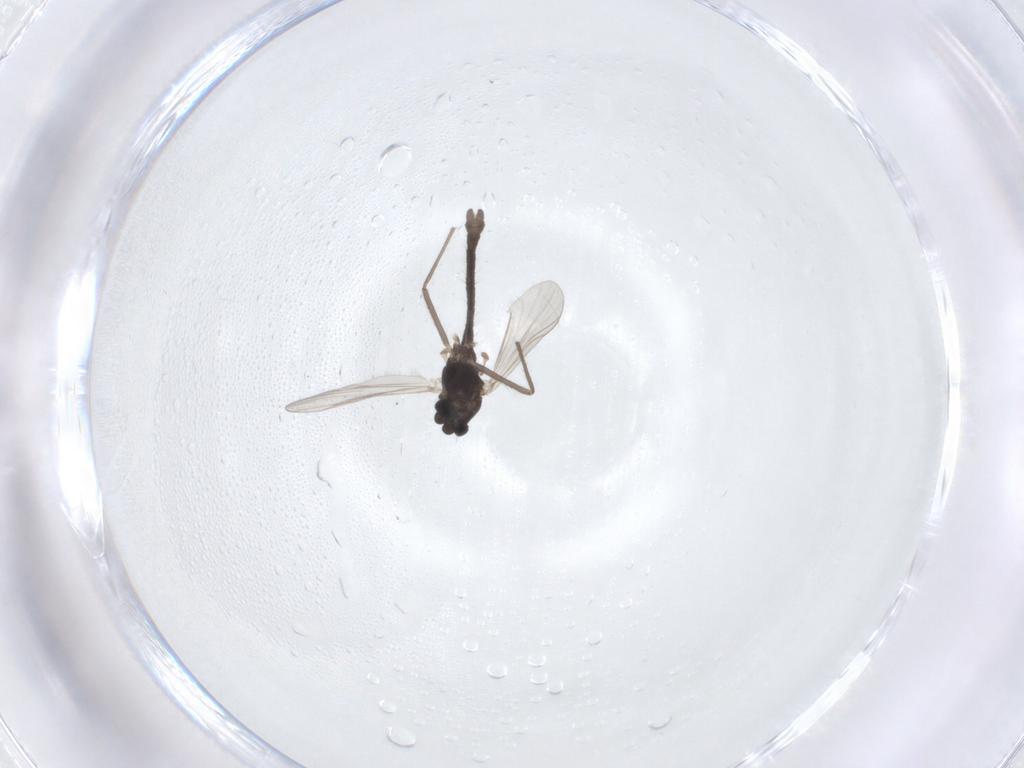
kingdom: Animalia
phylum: Arthropoda
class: Insecta
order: Diptera
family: Chironomidae
